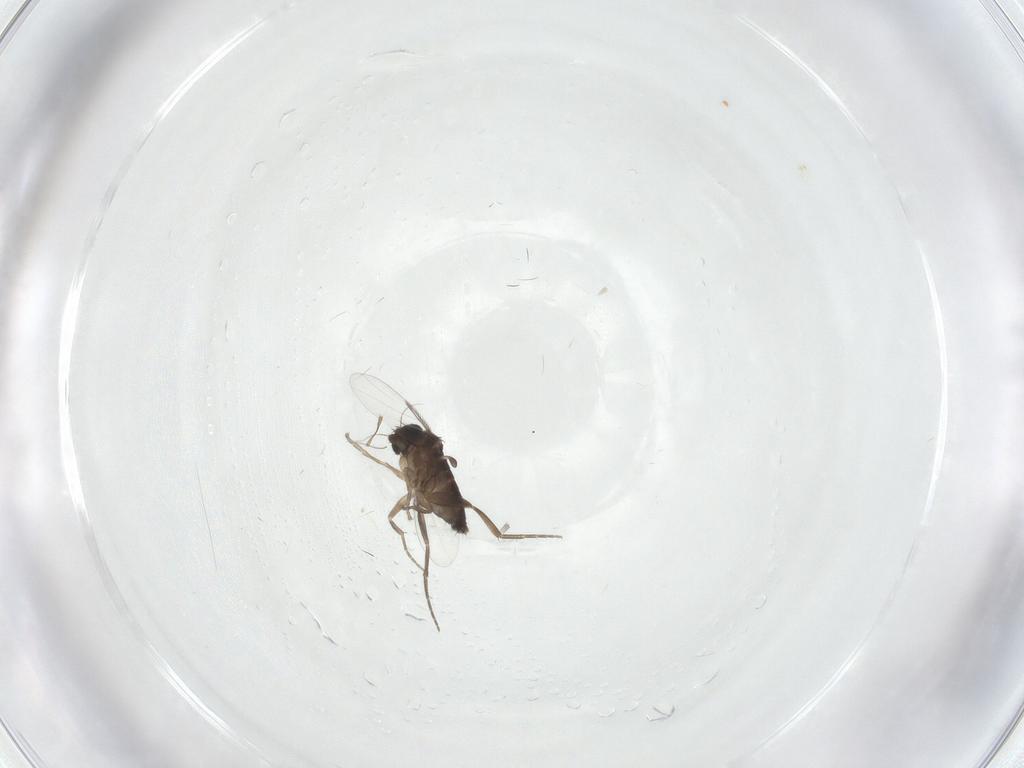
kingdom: Animalia
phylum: Arthropoda
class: Insecta
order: Diptera
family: Phoridae
